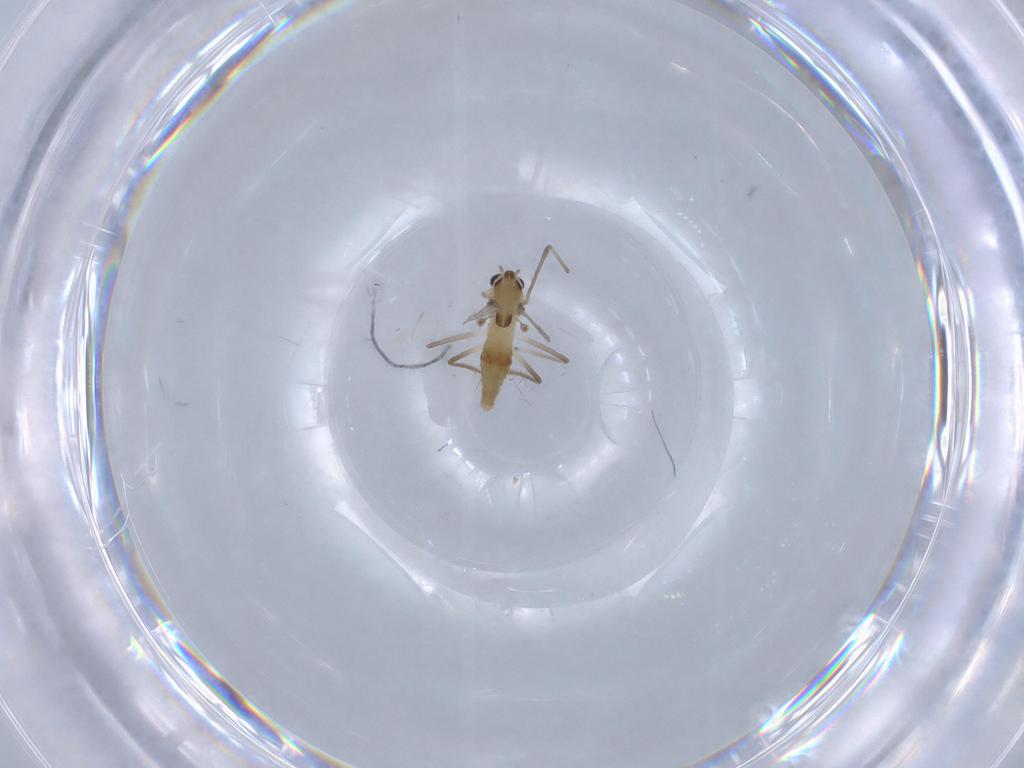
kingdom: Animalia
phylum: Arthropoda
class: Insecta
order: Diptera
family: Chironomidae
